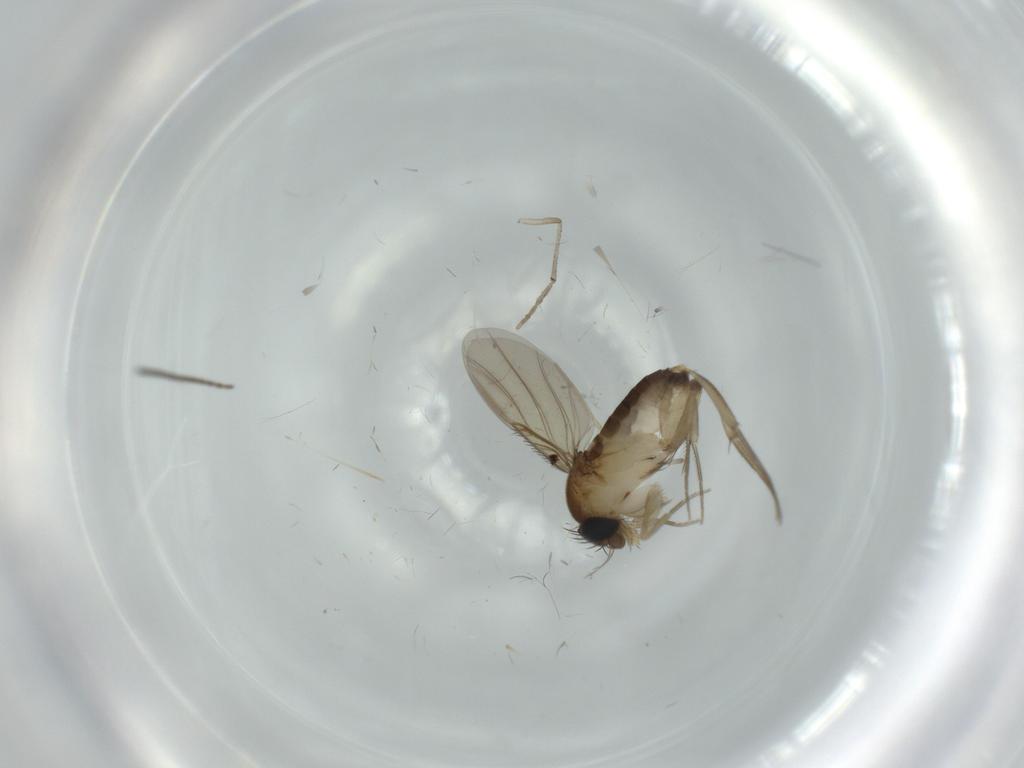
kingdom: Animalia
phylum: Arthropoda
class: Insecta
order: Diptera
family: Phoridae
